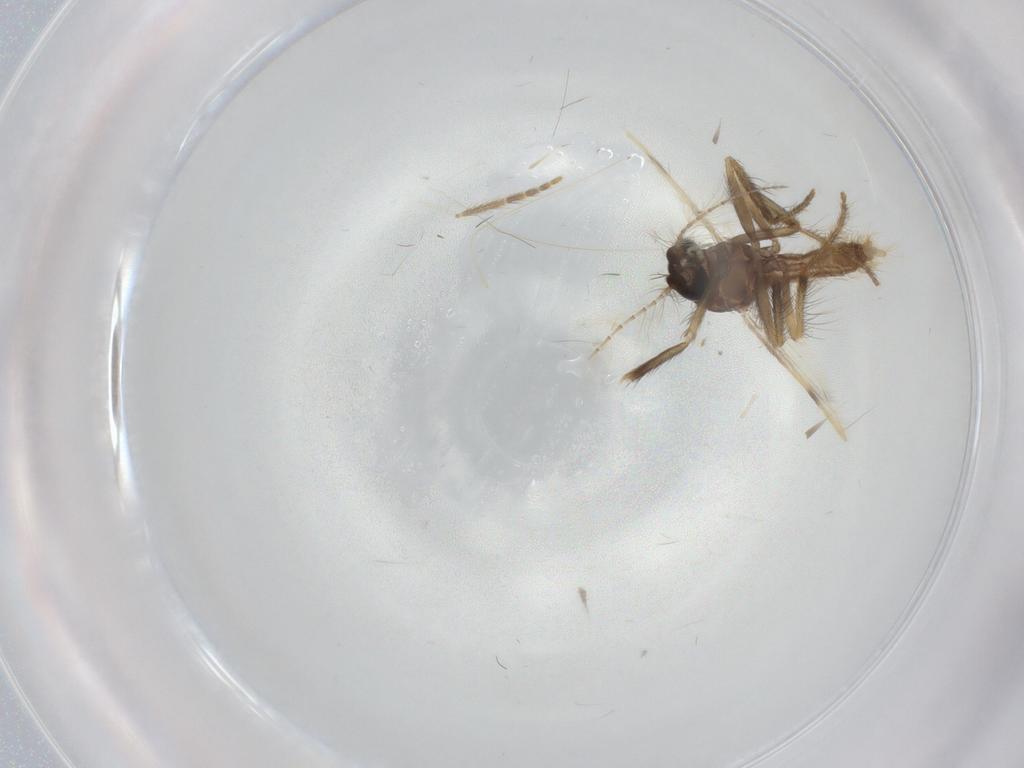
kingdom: Animalia
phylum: Arthropoda
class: Insecta
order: Diptera
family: Corethrellidae
